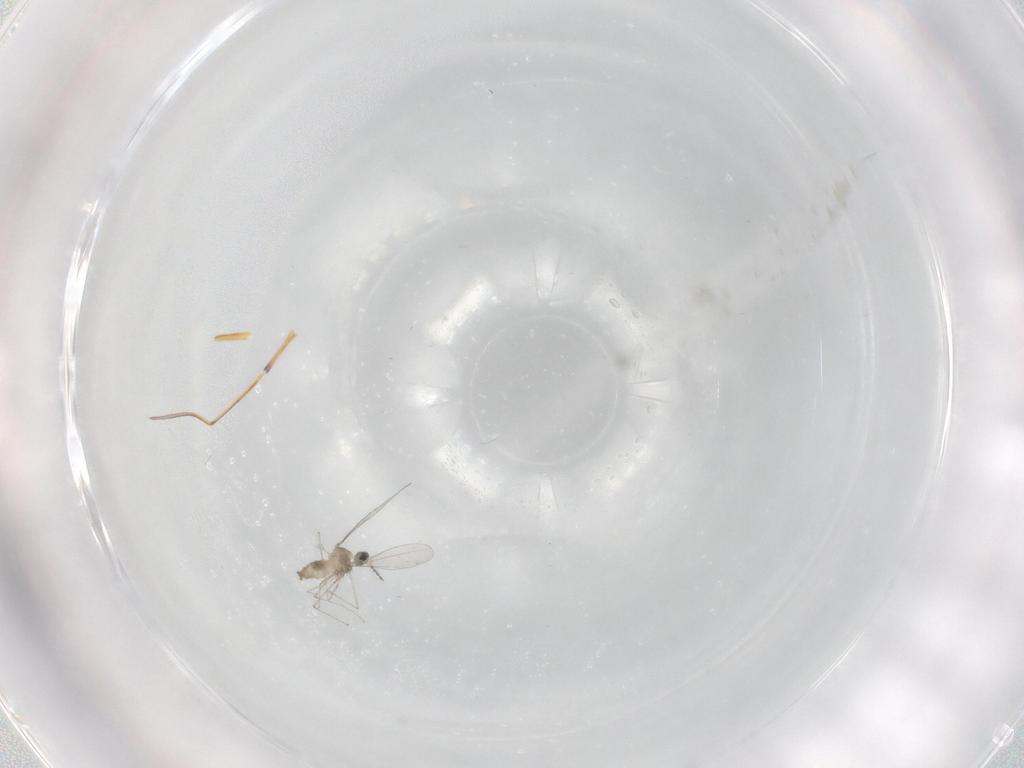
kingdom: Animalia
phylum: Arthropoda
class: Insecta
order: Diptera
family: Cecidomyiidae
